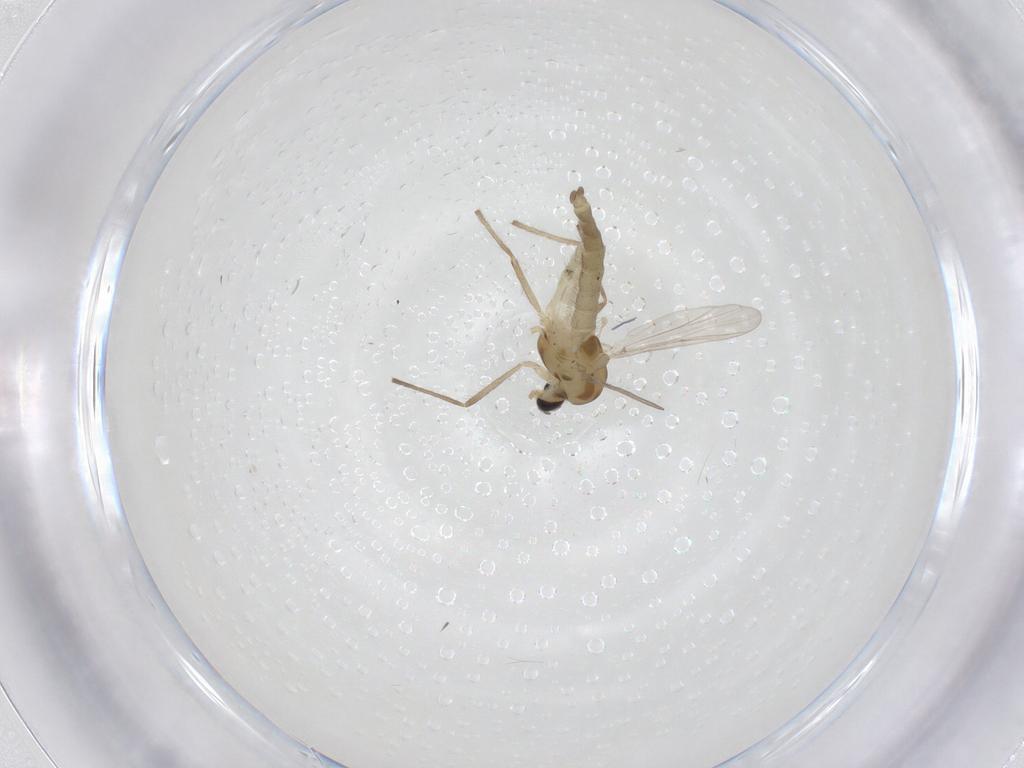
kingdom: Animalia
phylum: Arthropoda
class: Insecta
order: Diptera
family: Chironomidae
